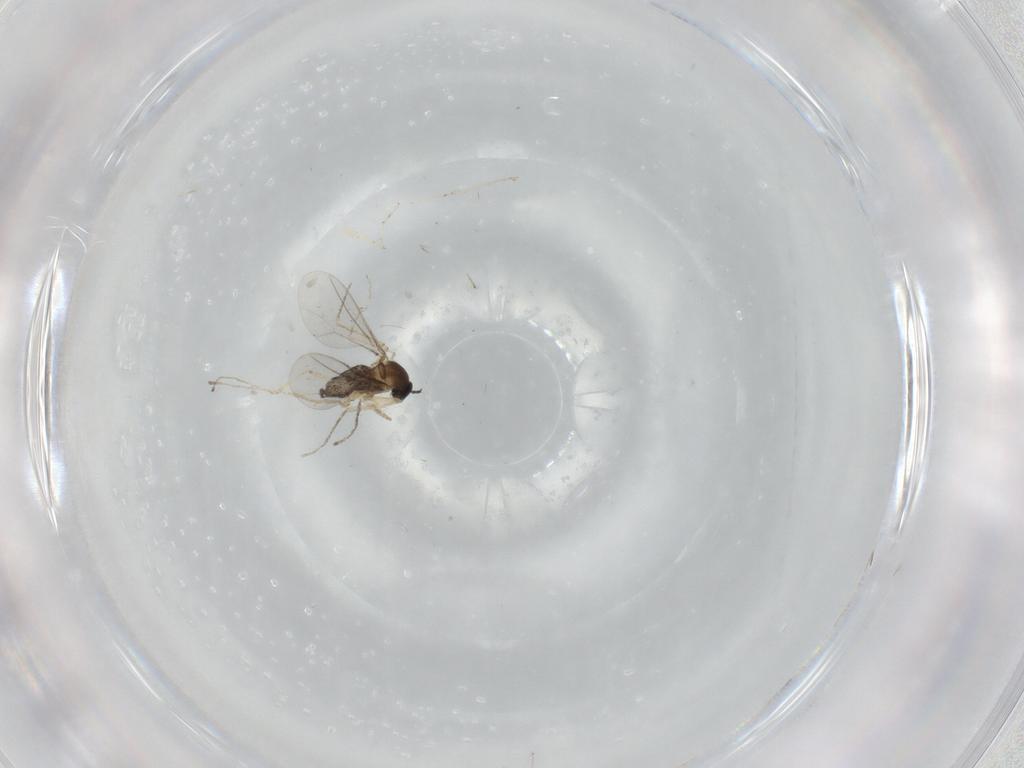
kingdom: Animalia
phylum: Arthropoda
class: Insecta
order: Diptera
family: Cecidomyiidae
